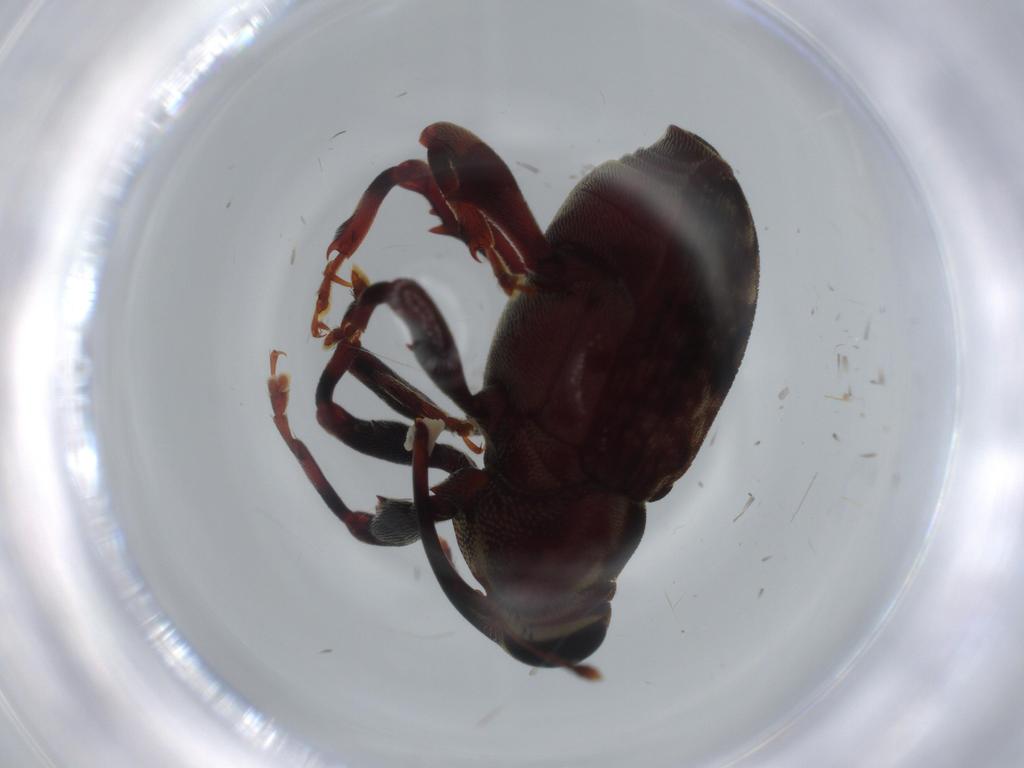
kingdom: Animalia
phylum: Arthropoda
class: Insecta
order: Coleoptera
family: Curculionidae
